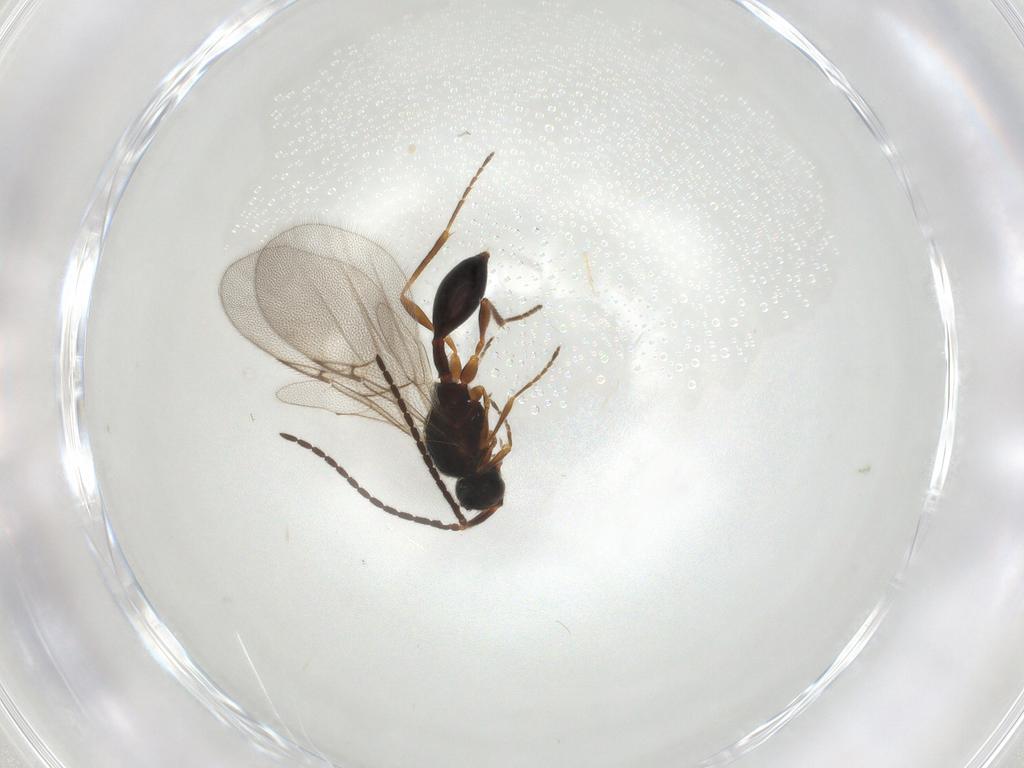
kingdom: Animalia
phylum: Arthropoda
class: Insecta
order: Hymenoptera
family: Diapriidae
